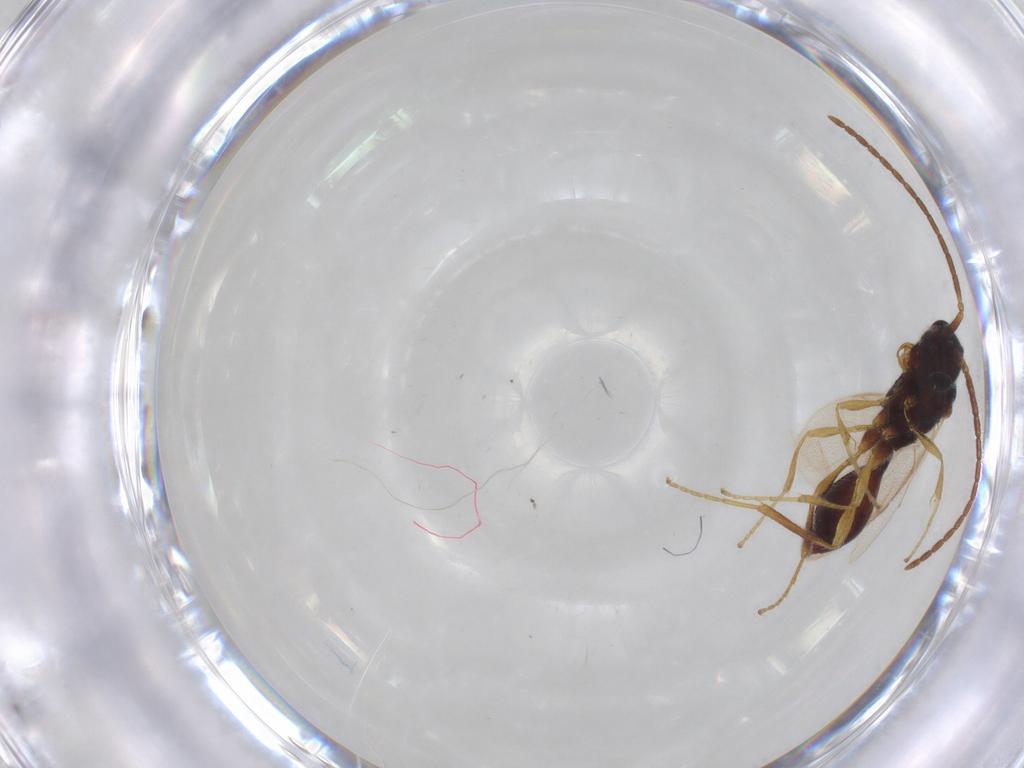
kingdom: Animalia
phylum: Arthropoda
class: Insecta
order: Hymenoptera
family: Diapriidae
